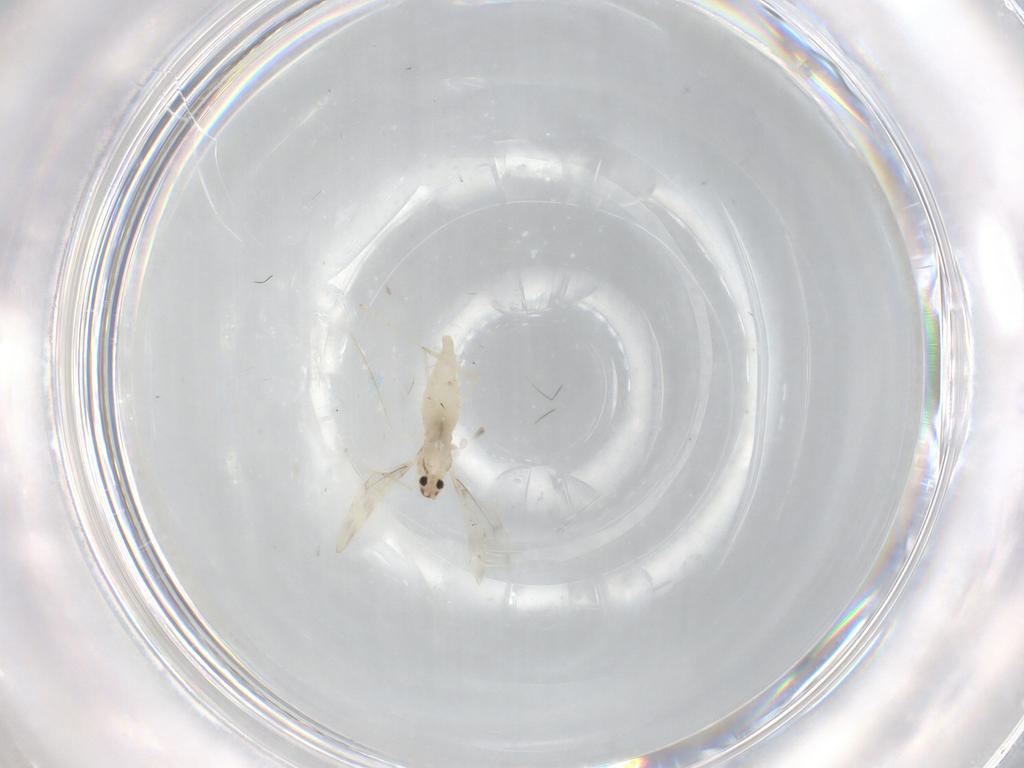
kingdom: Animalia
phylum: Arthropoda
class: Insecta
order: Diptera
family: Cecidomyiidae
